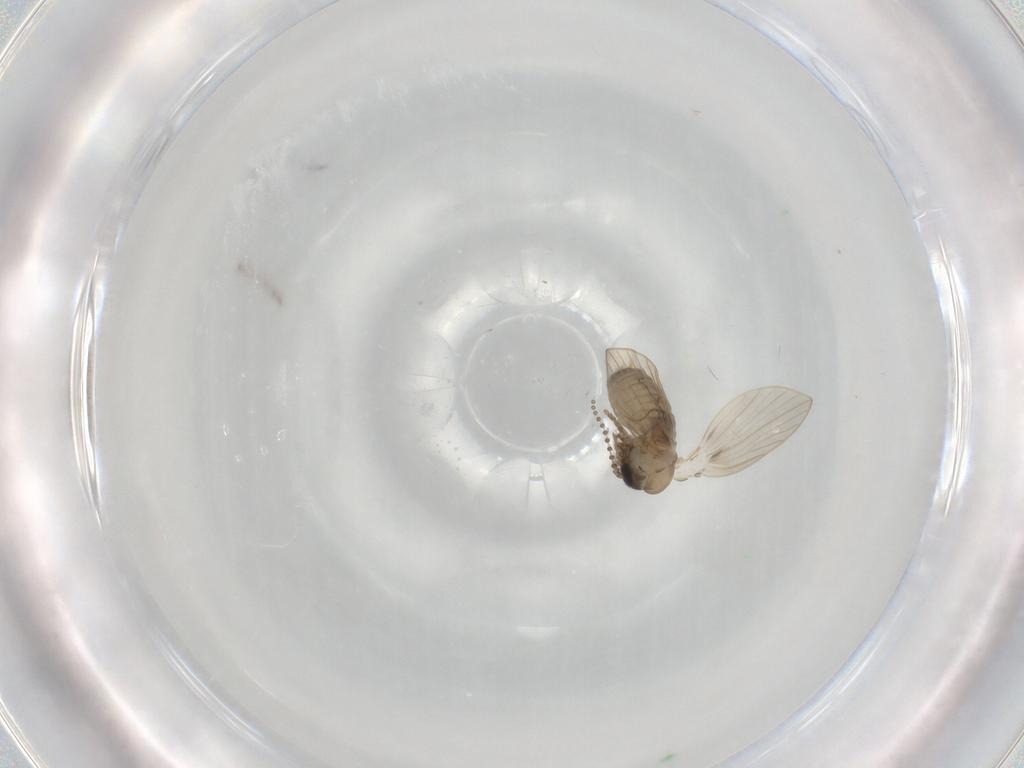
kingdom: Animalia
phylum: Arthropoda
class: Insecta
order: Diptera
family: Psychodidae
